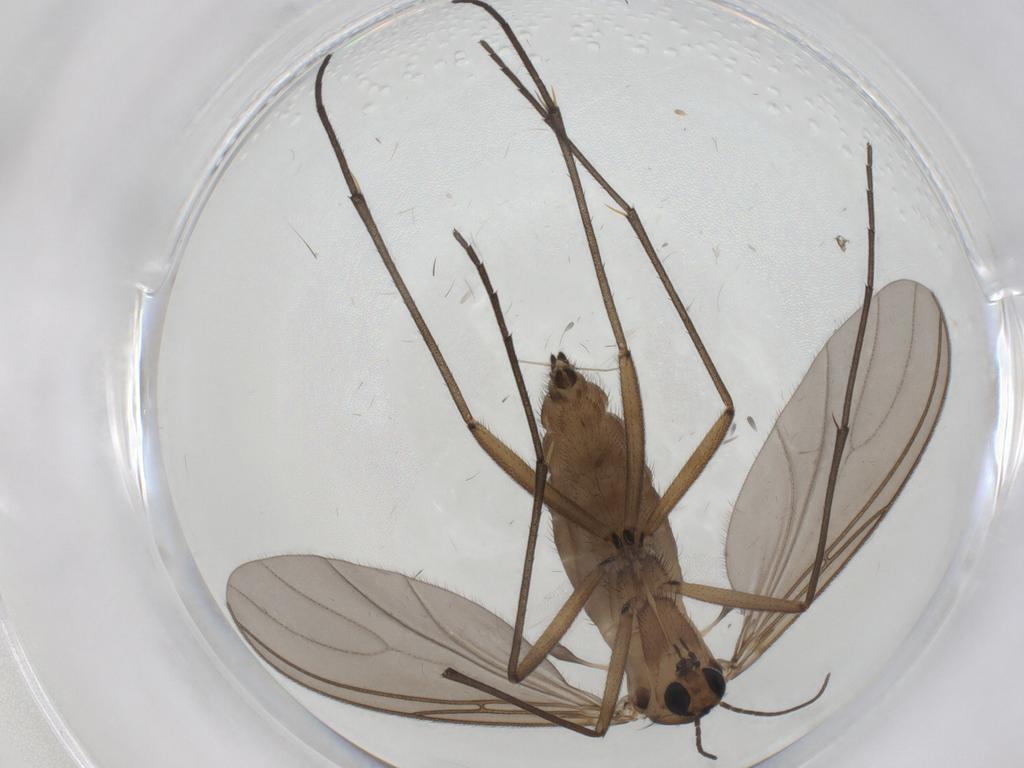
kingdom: Animalia
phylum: Arthropoda
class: Insecta
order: Diptera
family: Sciaridae
